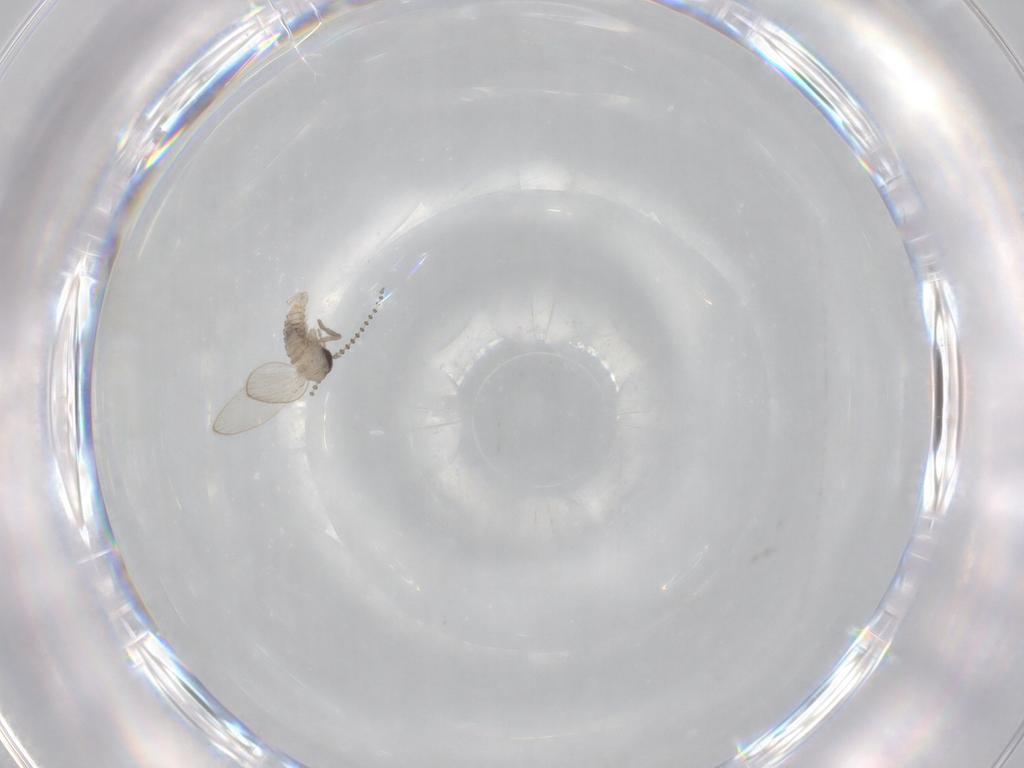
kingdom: Animalia
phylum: Arthropoda
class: Insecta
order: Diptera
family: Psychodidae
